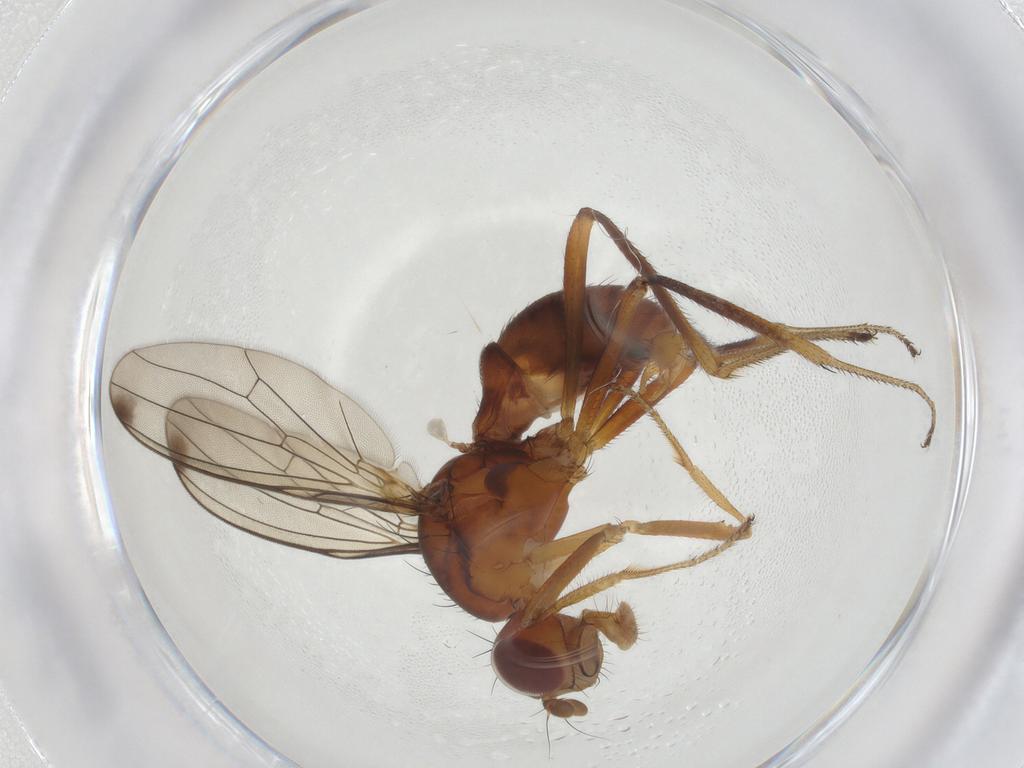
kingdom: Animalia
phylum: Arthropoda
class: Insecta
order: Diptera
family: Sepsidae
